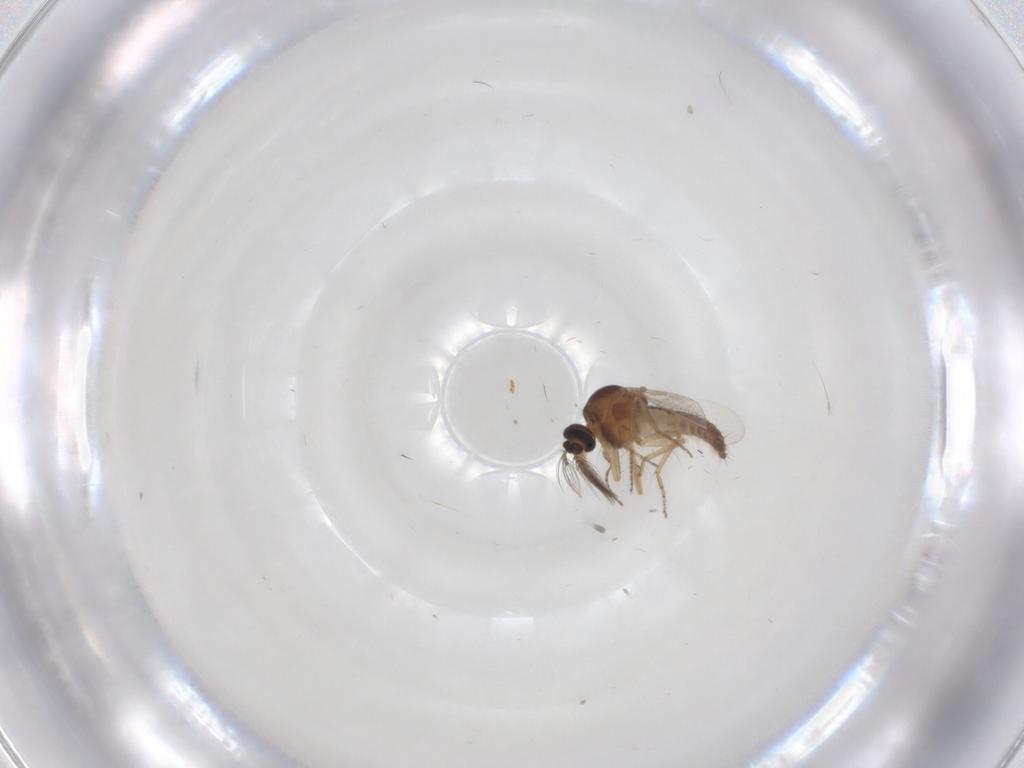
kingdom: Animalia
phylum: Arthropoda
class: Insecta
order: Diptera
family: Ceratopogonidae
